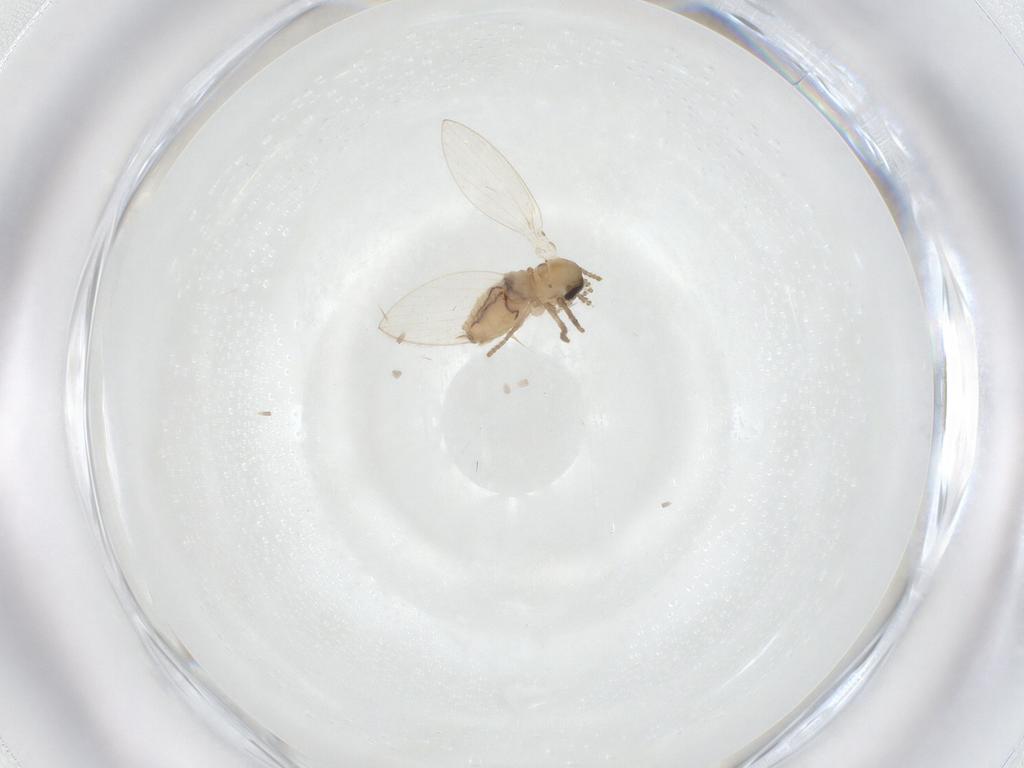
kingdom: Animalia
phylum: Arthropoda
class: Insecta
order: Diptera
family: Psychodidae
